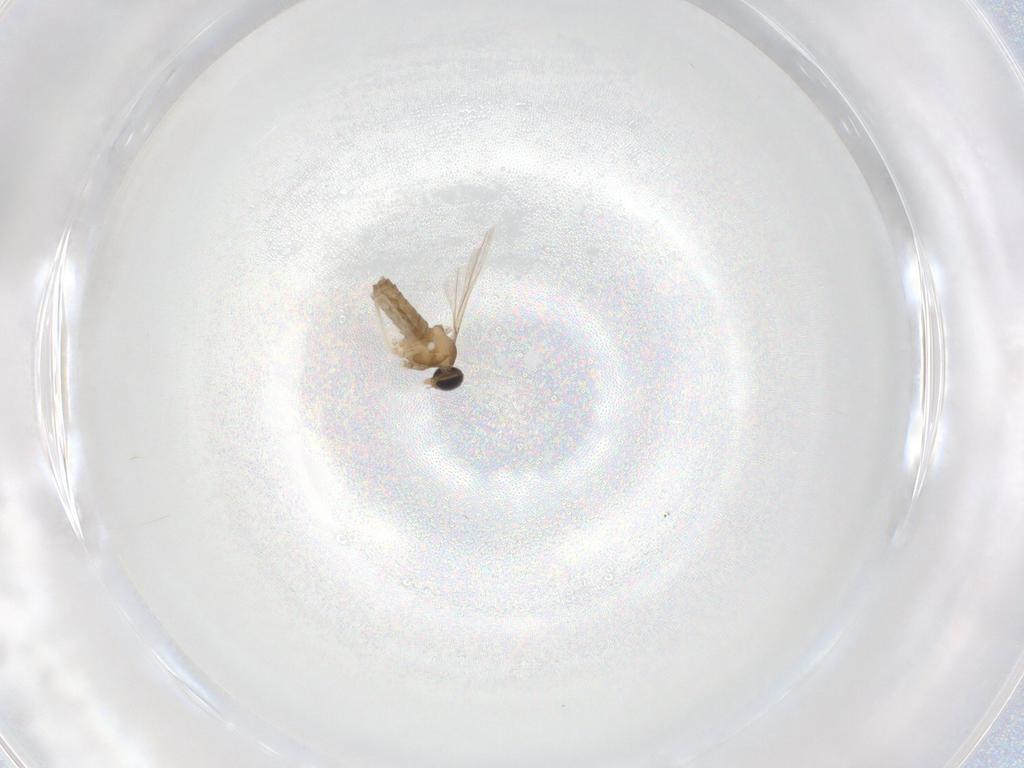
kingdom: Animalia
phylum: Arthropoda
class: Insecta
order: Diptera
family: Cecidomyiidae
